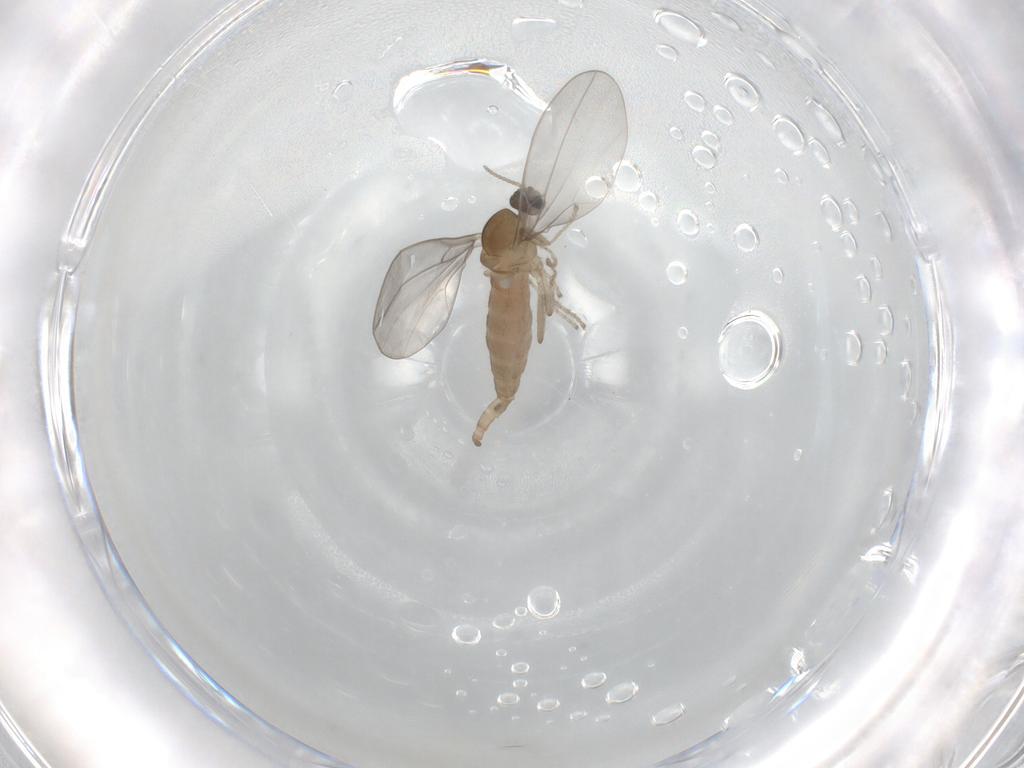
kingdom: Animalia
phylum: Arthropoda
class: Insecta
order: Diptera
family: Cecidomyiidae
